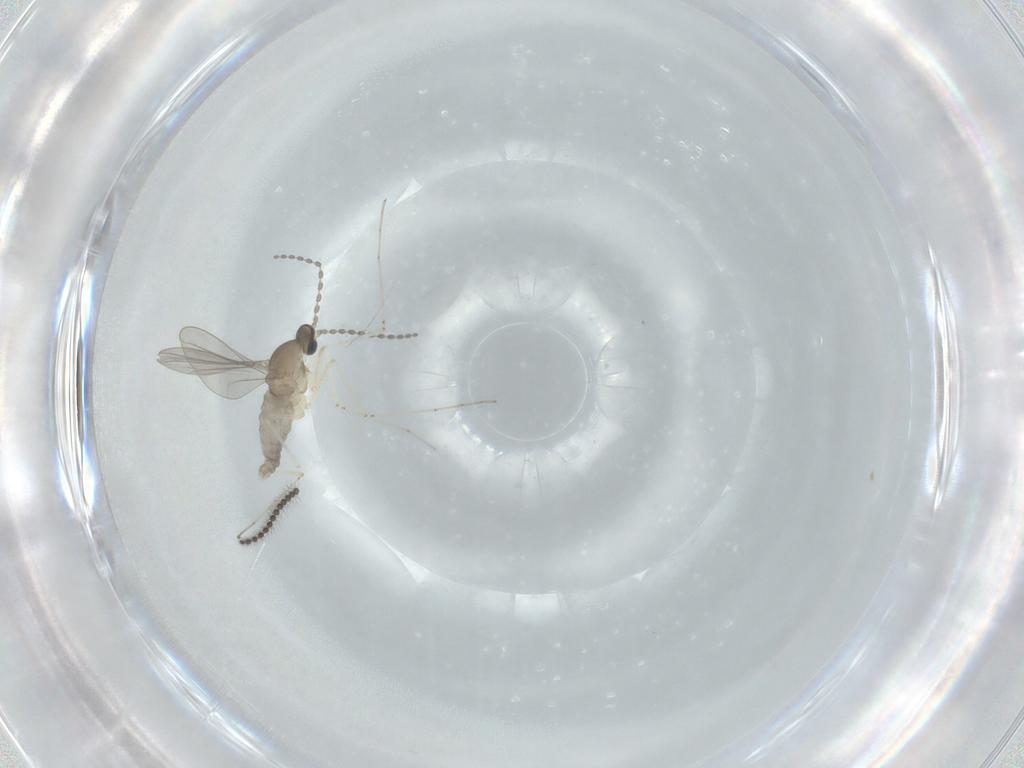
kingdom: Animalia
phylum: Arthropoda
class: Insecta
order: Diptera
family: Cecidomyiidae
